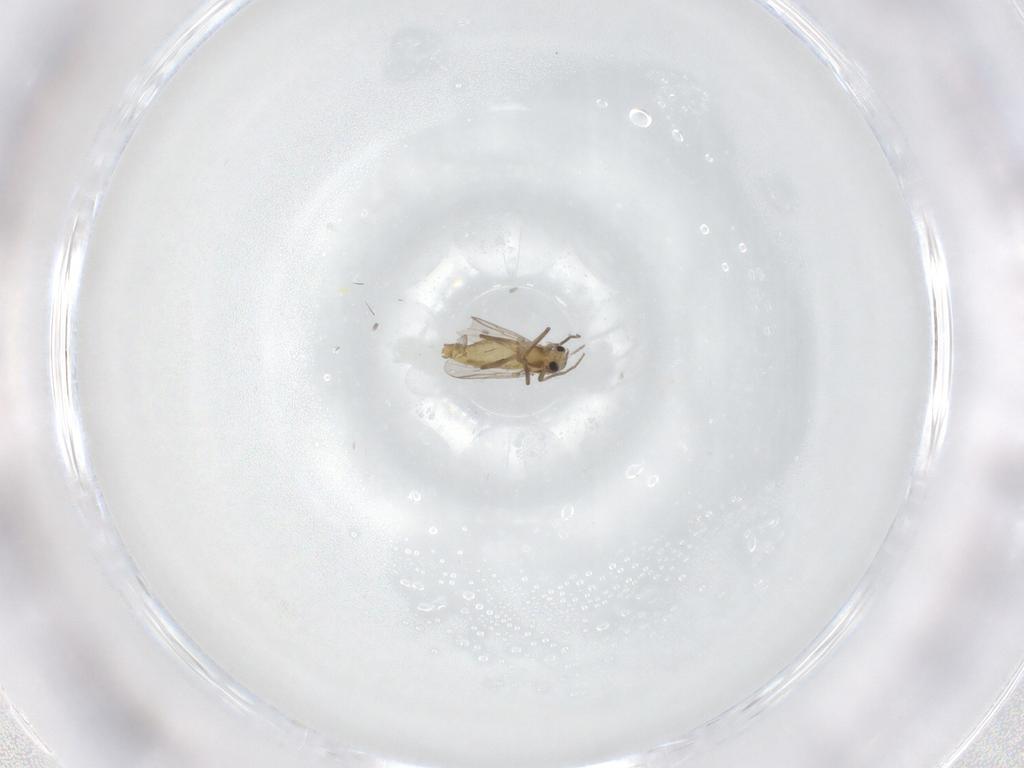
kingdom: Animalia
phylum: Arthropoda
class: Insecta
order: Diptera
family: Chironomidae
